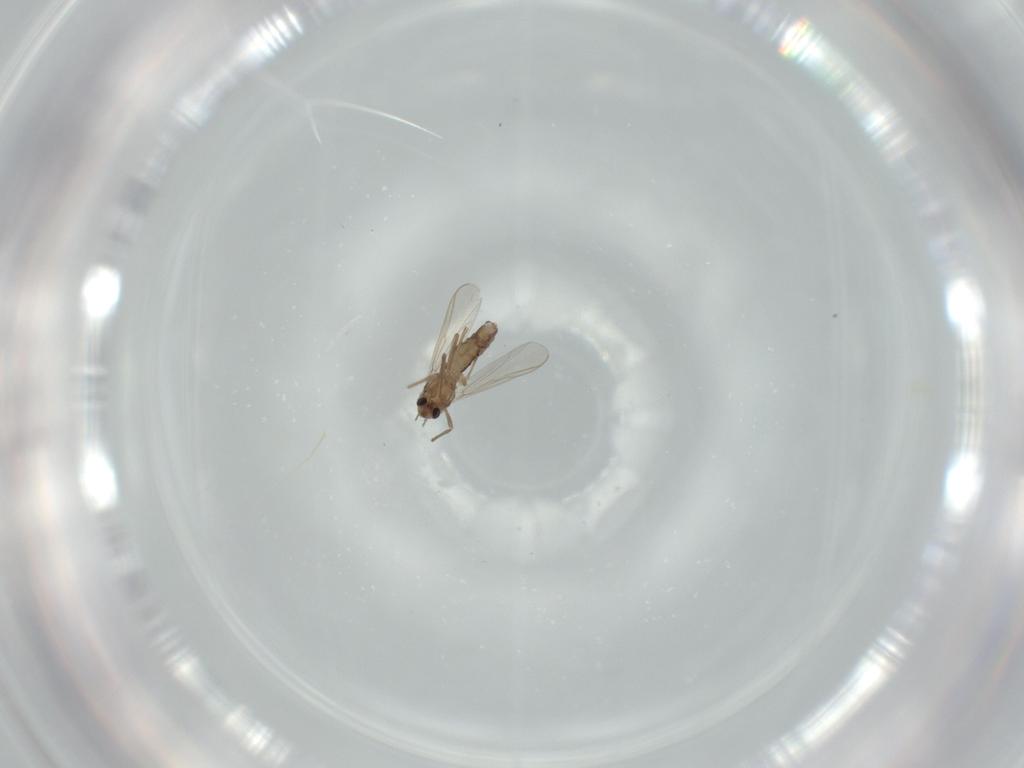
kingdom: Animalia
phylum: Arthropoda
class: Insecta
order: Diptera
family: Chironomidae
